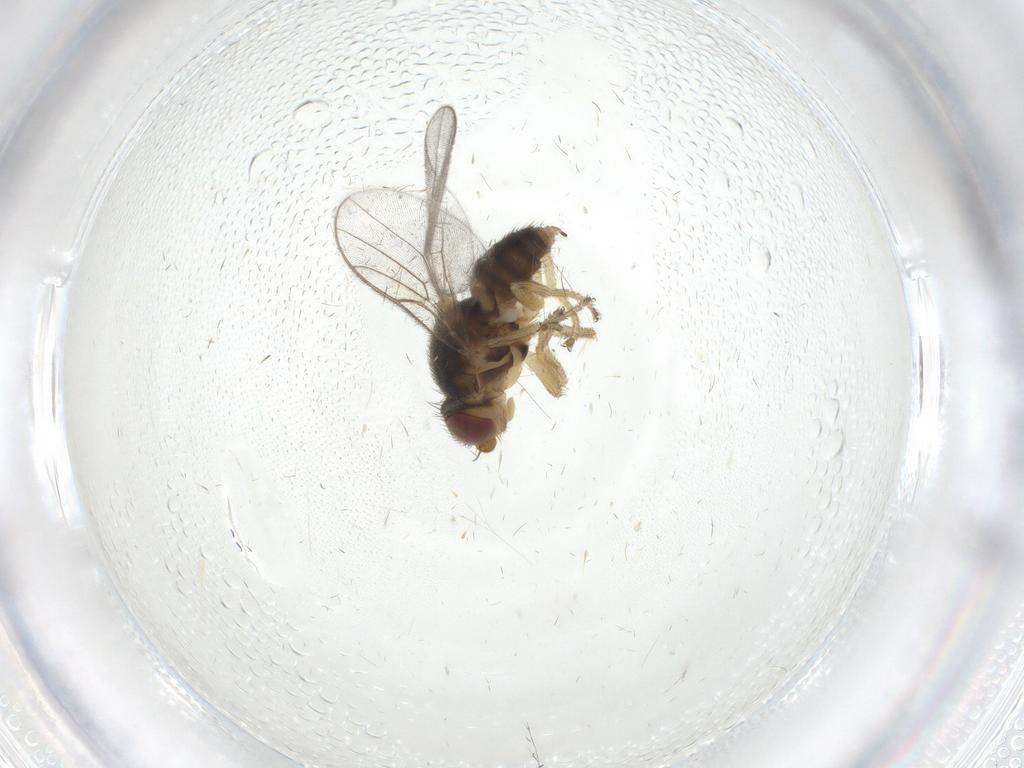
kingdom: Animalia
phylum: Arthropoda
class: Insecta
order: Diptera
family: Chloropidae
